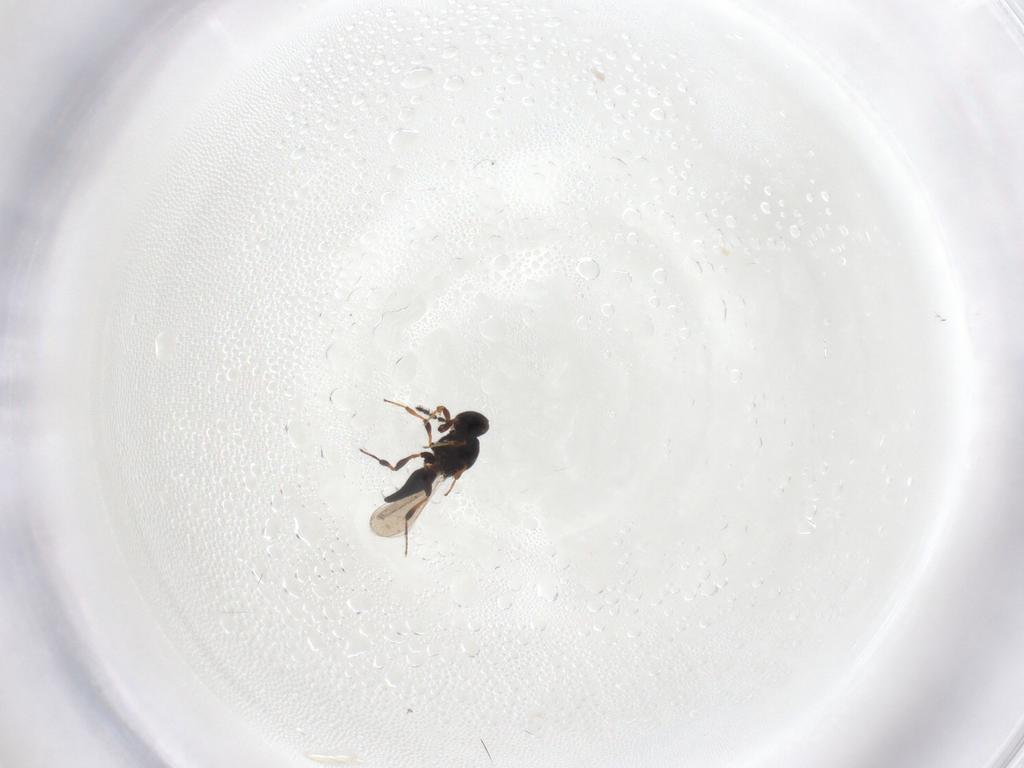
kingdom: Animalia
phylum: Arthropoda
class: Insecta
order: Hymenoptera
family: Platygastridae
